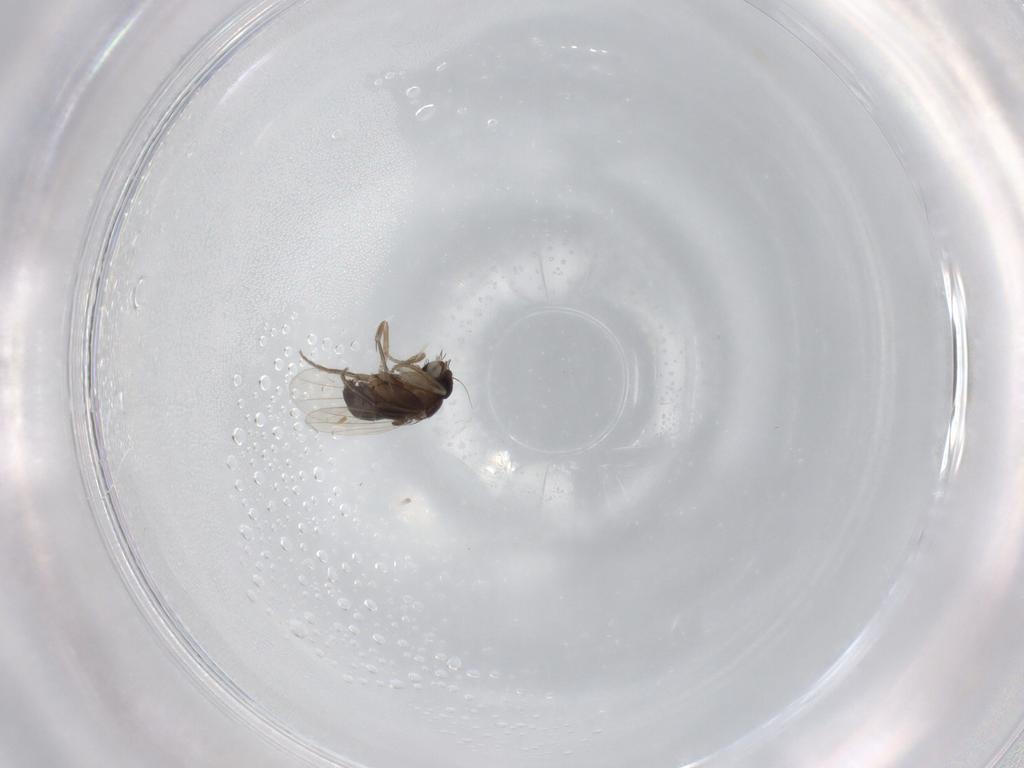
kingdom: Animalia
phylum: Arthropoda
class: Insecta
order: Diptera
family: Phoridae
